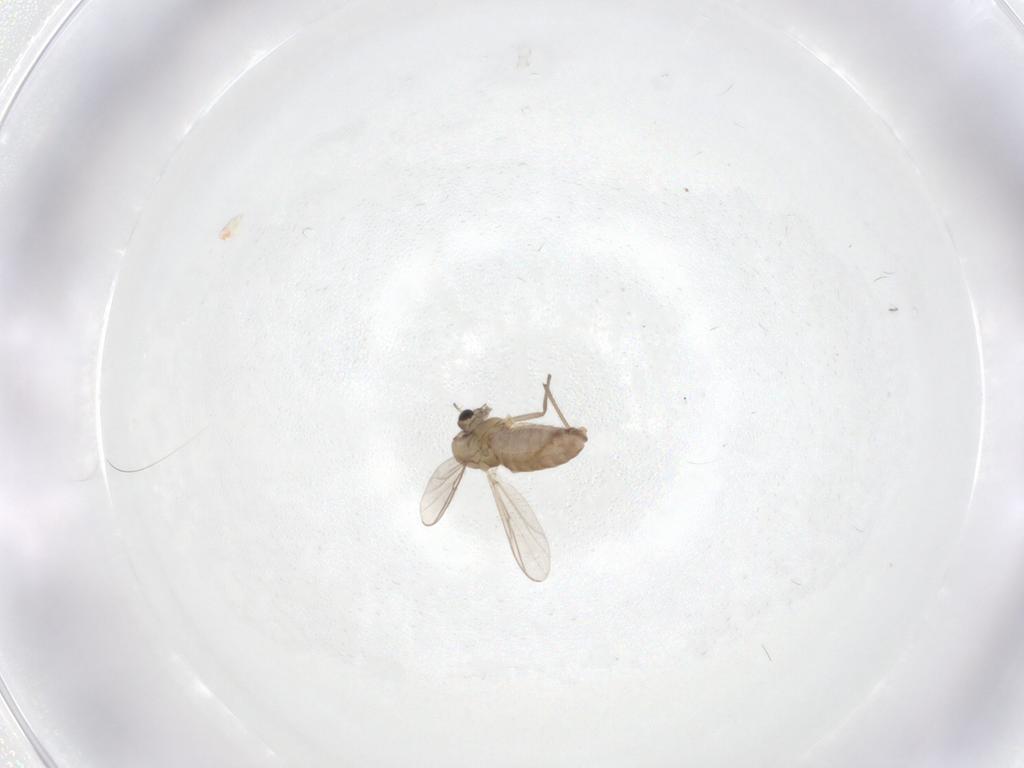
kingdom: Animalia
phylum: Arthropoda
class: Insecta
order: Diptera
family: Chironomidae
